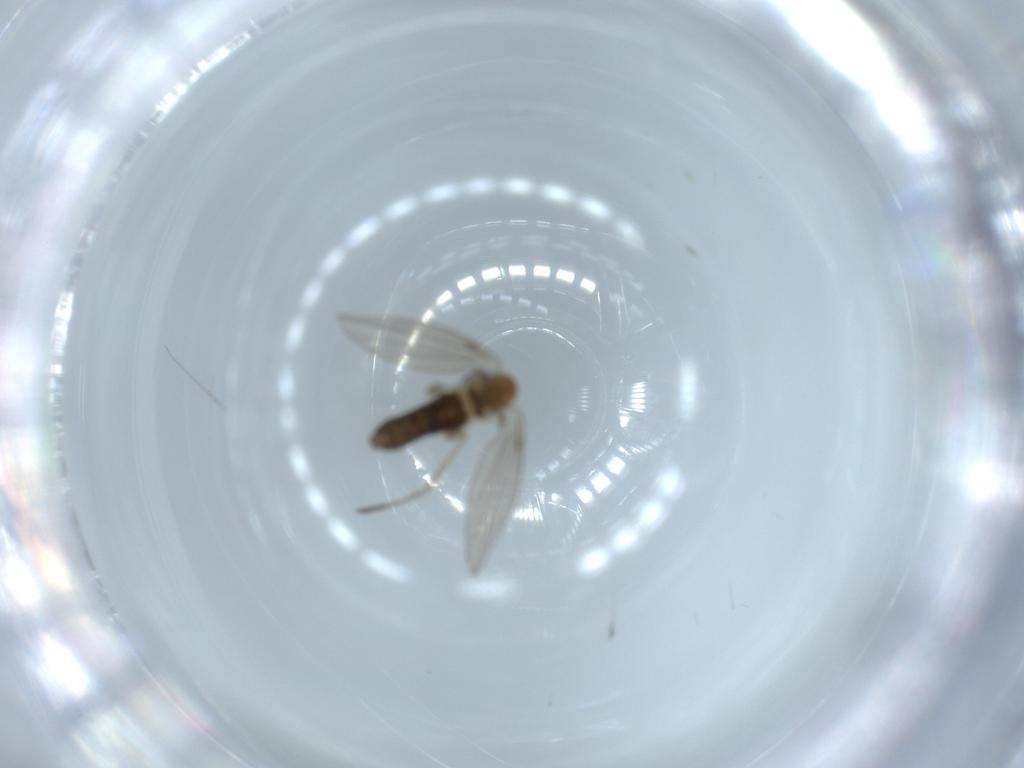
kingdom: Animalia
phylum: Arthropoda
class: Insecta
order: Diptera
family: Psychodidae
